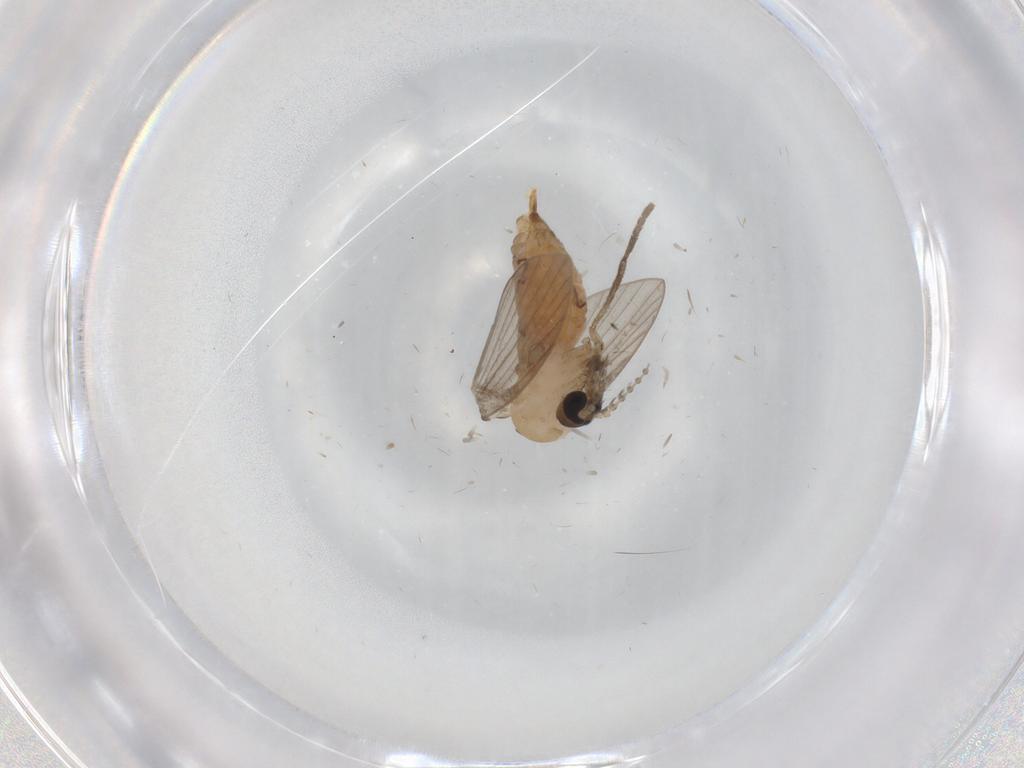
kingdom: Animalia
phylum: Arthropoda
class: Insecta
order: Diptera
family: Psychodidae
